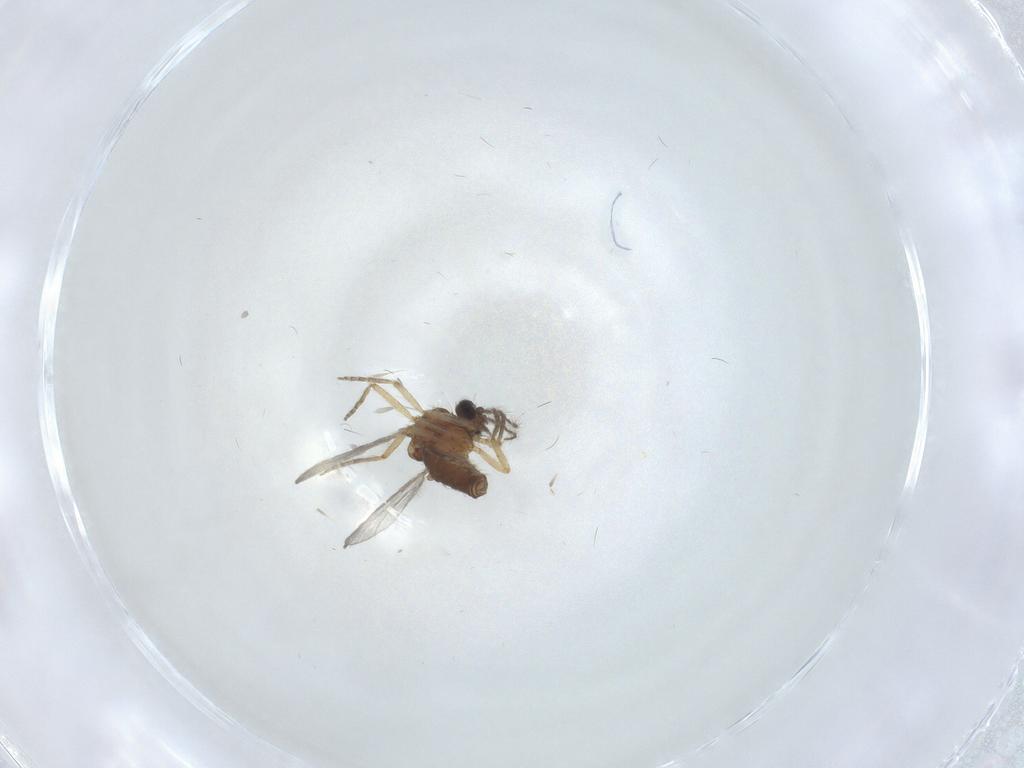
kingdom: Animalia
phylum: Arthropoda
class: Insecta
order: Diptera
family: Ceratopogonidae
